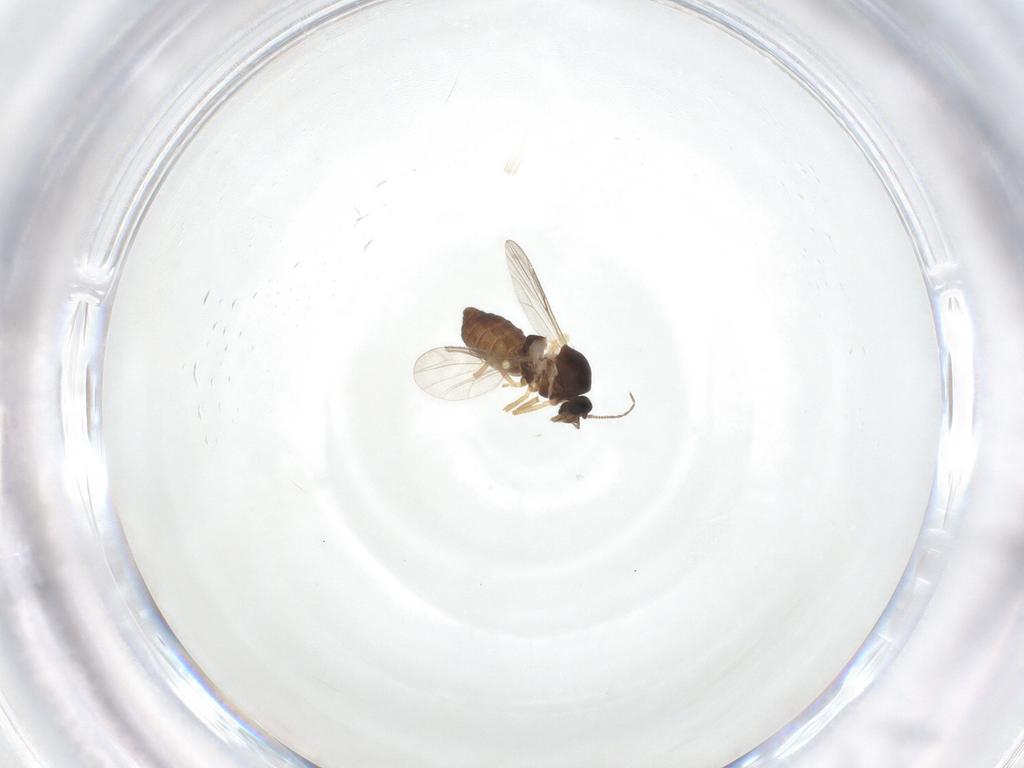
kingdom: Animalia
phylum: Arthropoda
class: Insecta
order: Diptera
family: Ceratopogonidae
